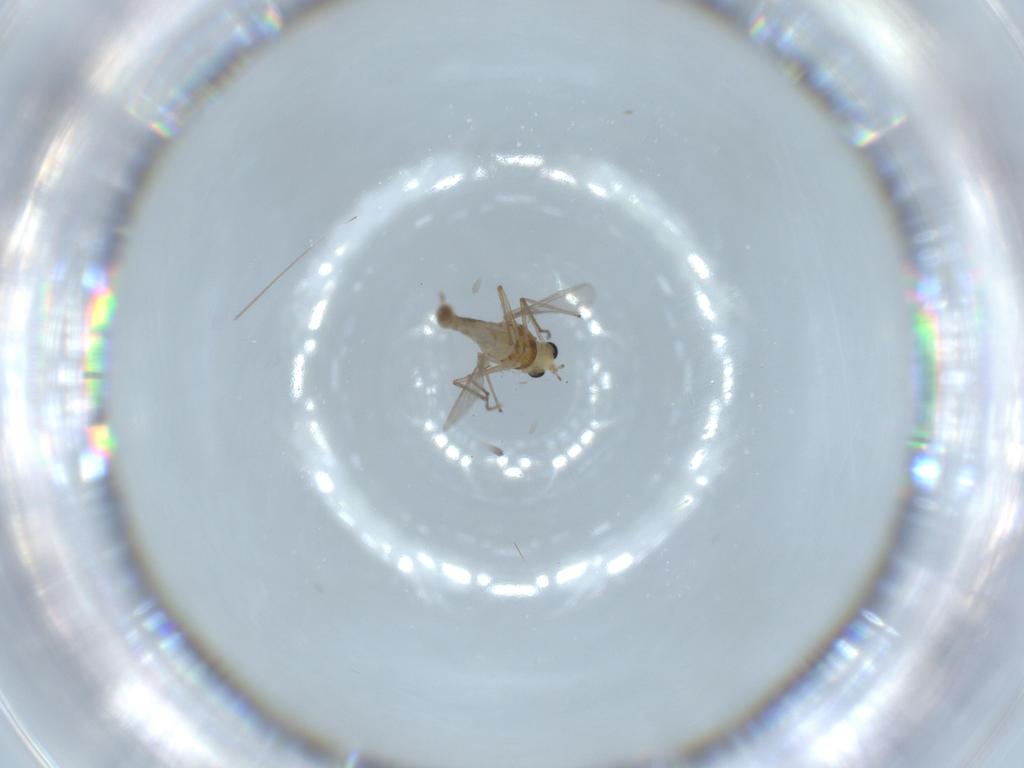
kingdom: Animalia
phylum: Arthropoda
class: Insecta
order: Diptera
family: Chironomidae
